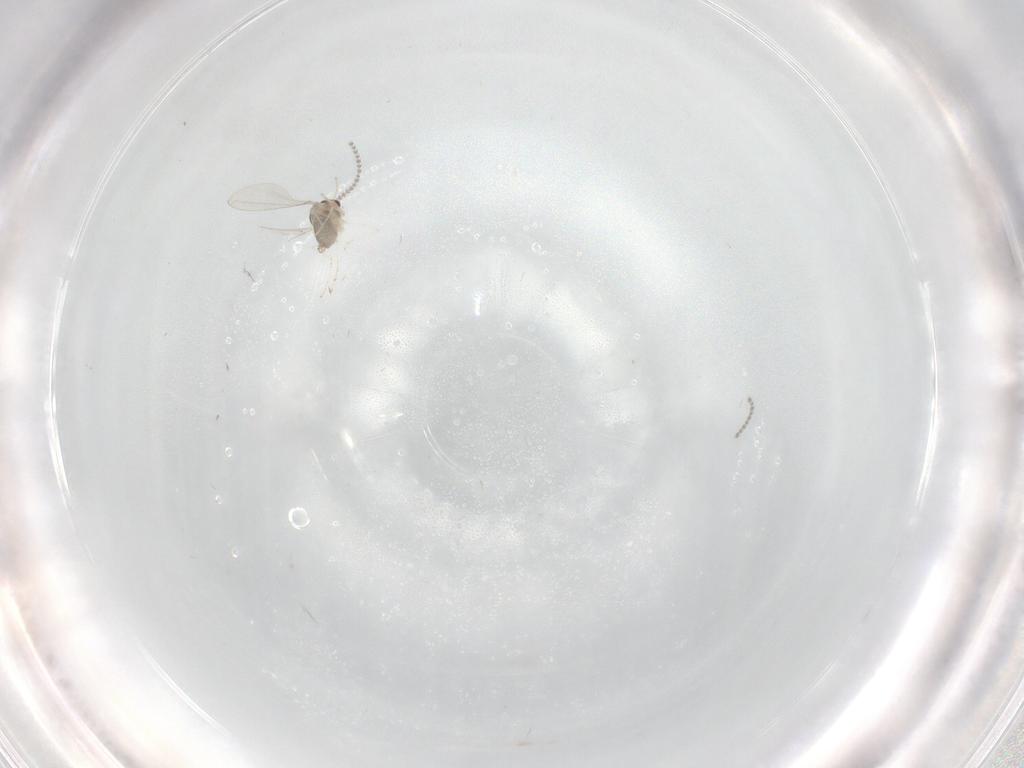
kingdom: Animalia
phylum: Arthropoda
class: Insecta
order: Diptera
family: Cecidomyiidae
